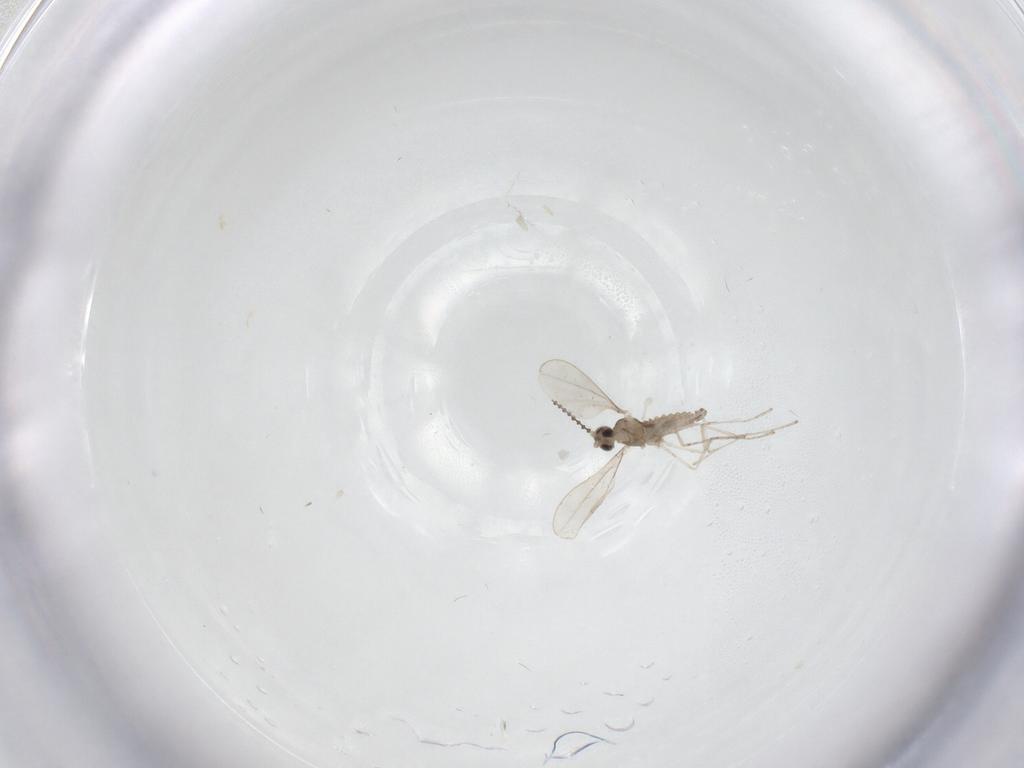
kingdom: Animalia
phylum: Arthropoda
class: Insecta
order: Diptera
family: Cecidomyiidae
